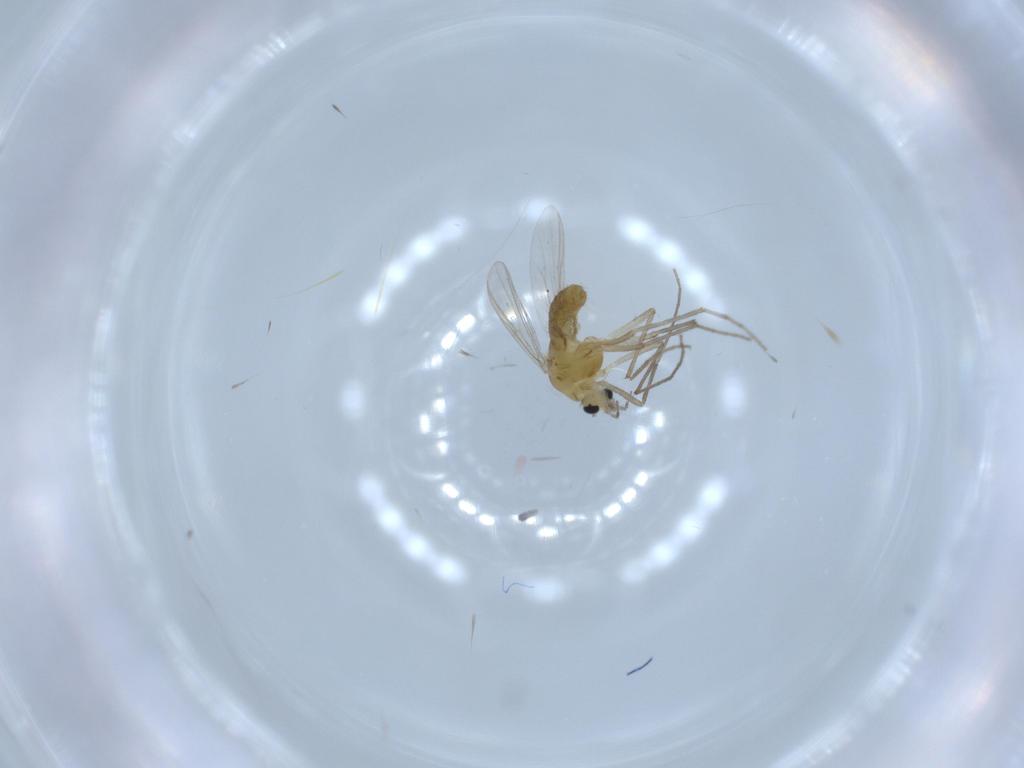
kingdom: Animalia
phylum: Arthropoda
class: Insecta
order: Diptera
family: Chironomidae
